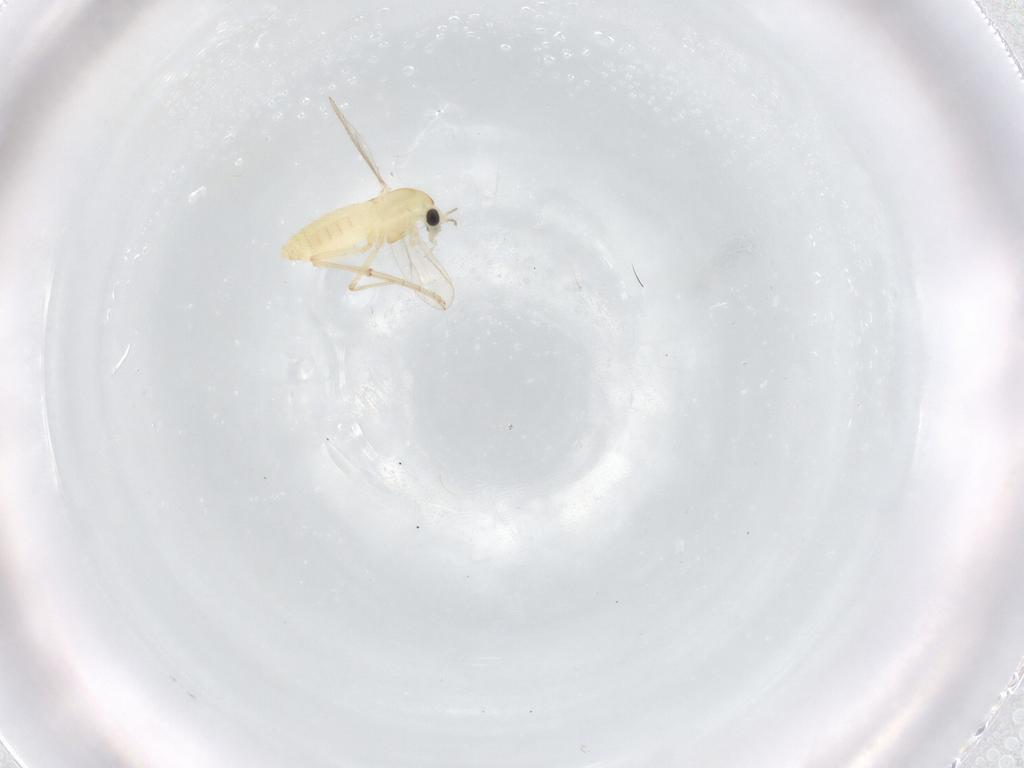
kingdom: Animalia
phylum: Arthropoda
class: Insecta
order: Diptera
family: Chironomidae
